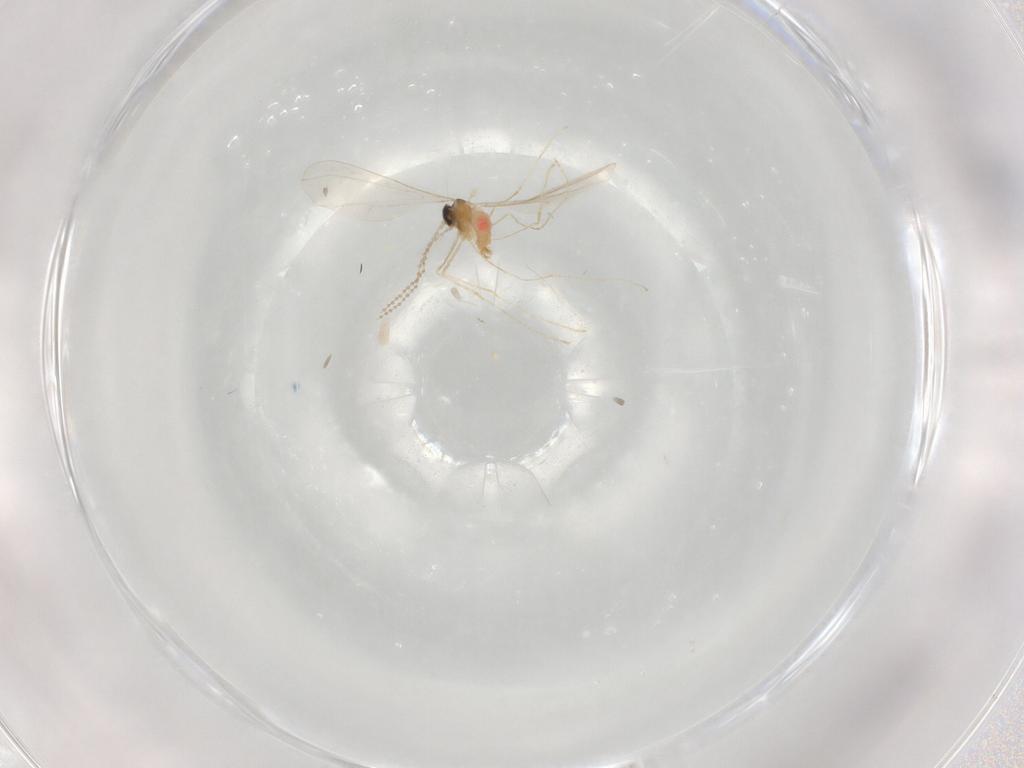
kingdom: Animalia
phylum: Arthropoda
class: Insecta
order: Diptera
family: Cecidomyiidae
